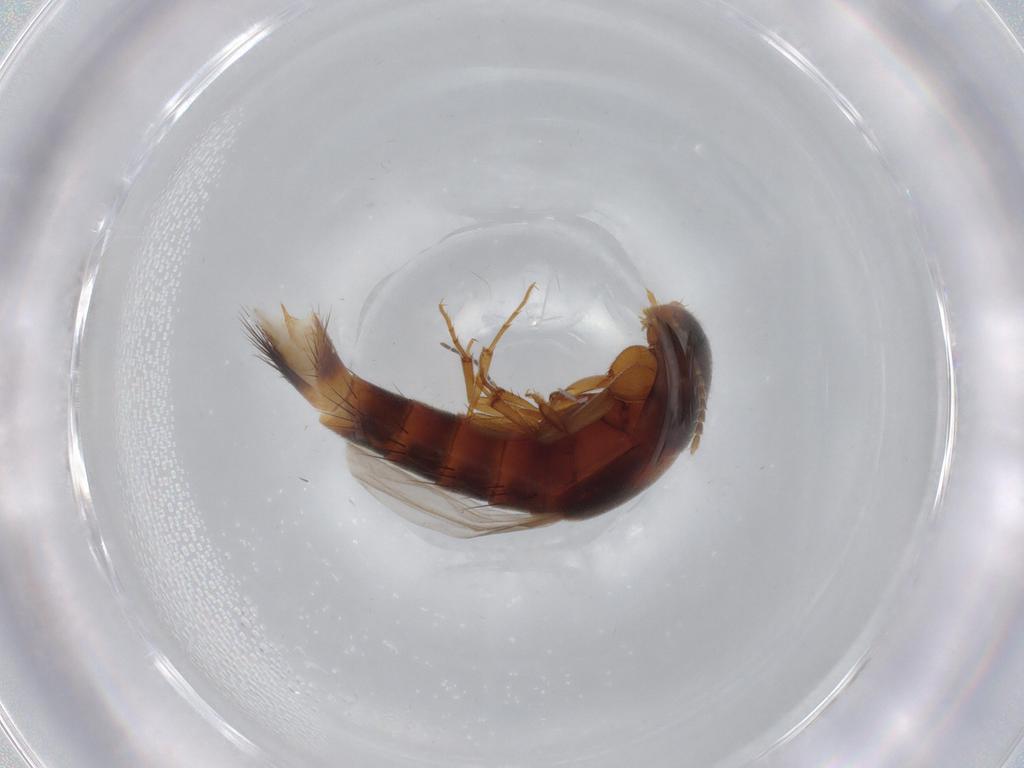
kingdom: Animalia
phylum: Arthropoda
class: Insecta
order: Coleoptera
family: Staphylinidae
